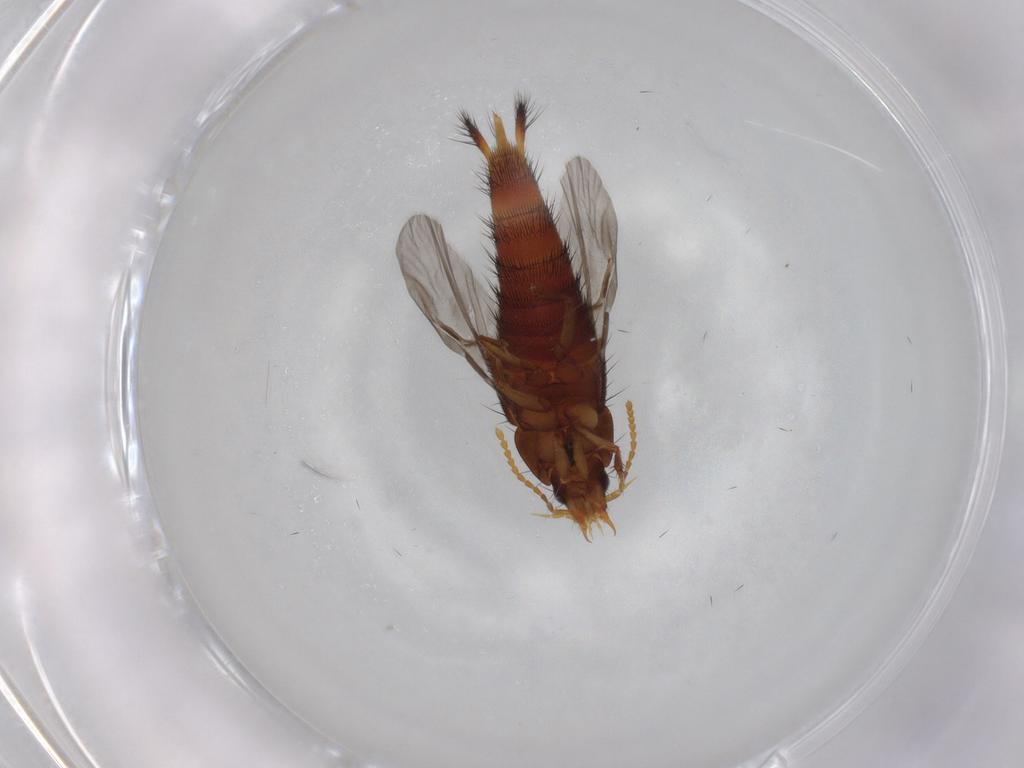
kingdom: Animalia
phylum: Arthropoda
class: Insecta
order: Coleoptera
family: Staphylinidae
